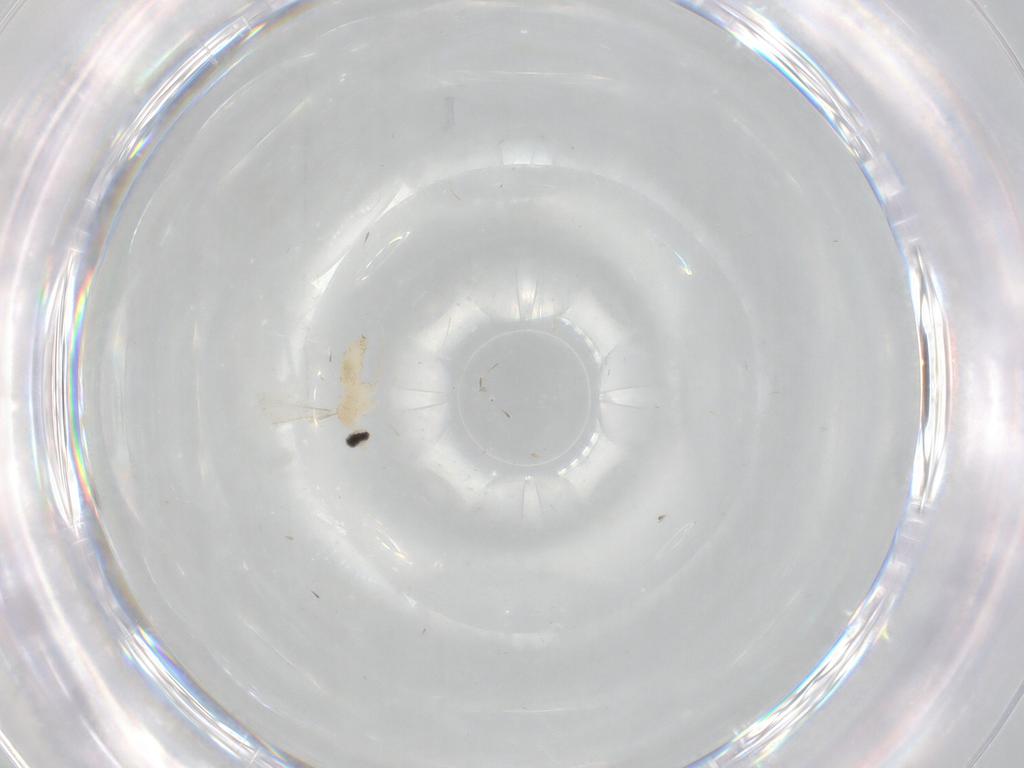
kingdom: Animalia
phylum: Arthropoda
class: Insecta
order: Diptera
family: Cecidomyiidae
